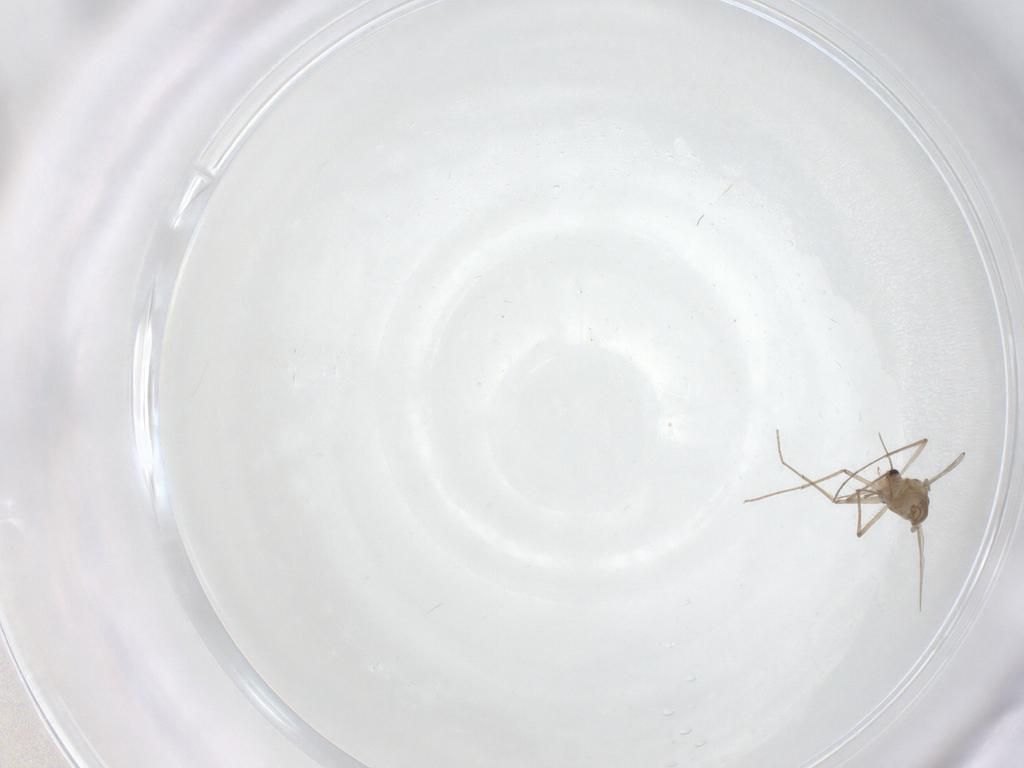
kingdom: Animalia
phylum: Arthropoda
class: Insecta
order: Diptera
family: Chironomidae
